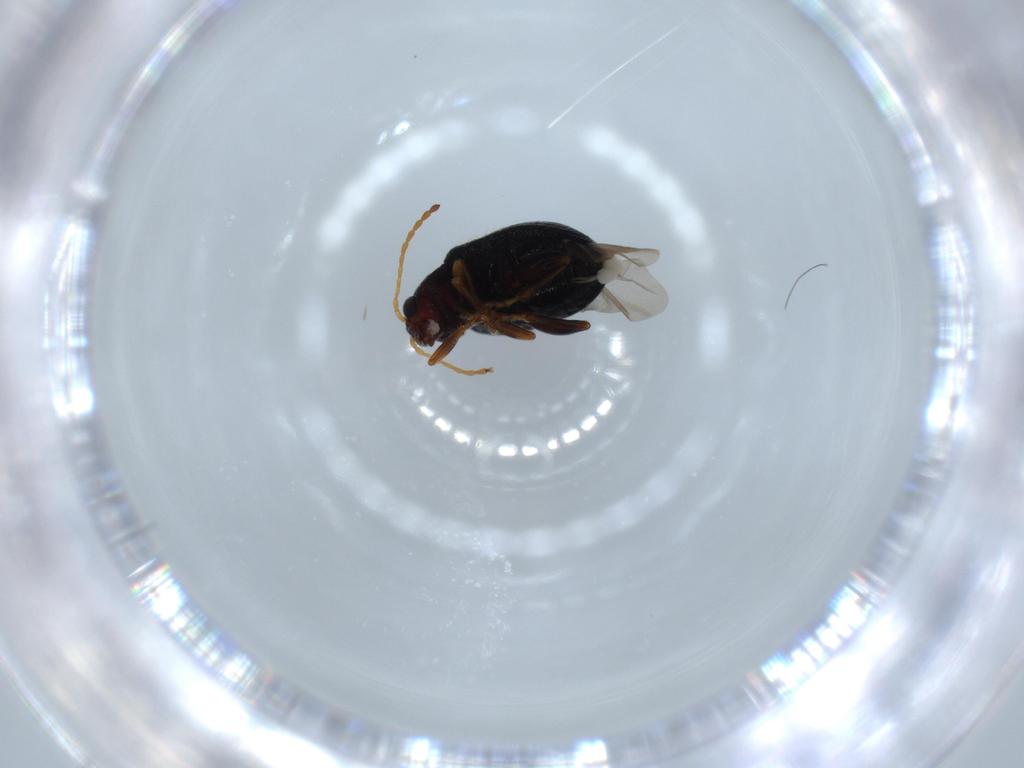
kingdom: Animalia
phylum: Arthropoda
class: Insecta
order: Coleoptera
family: Chrysomelidae
